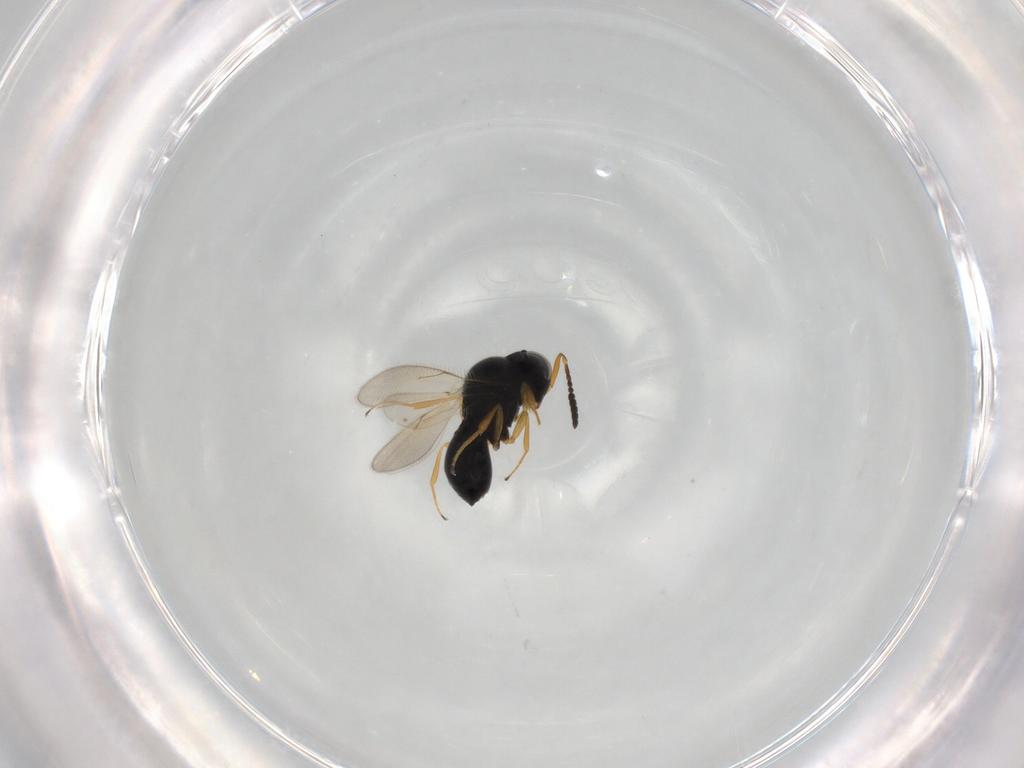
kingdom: Animalia
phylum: Arthropoda
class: Insecta
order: Hymenoptera
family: Scelionidae
